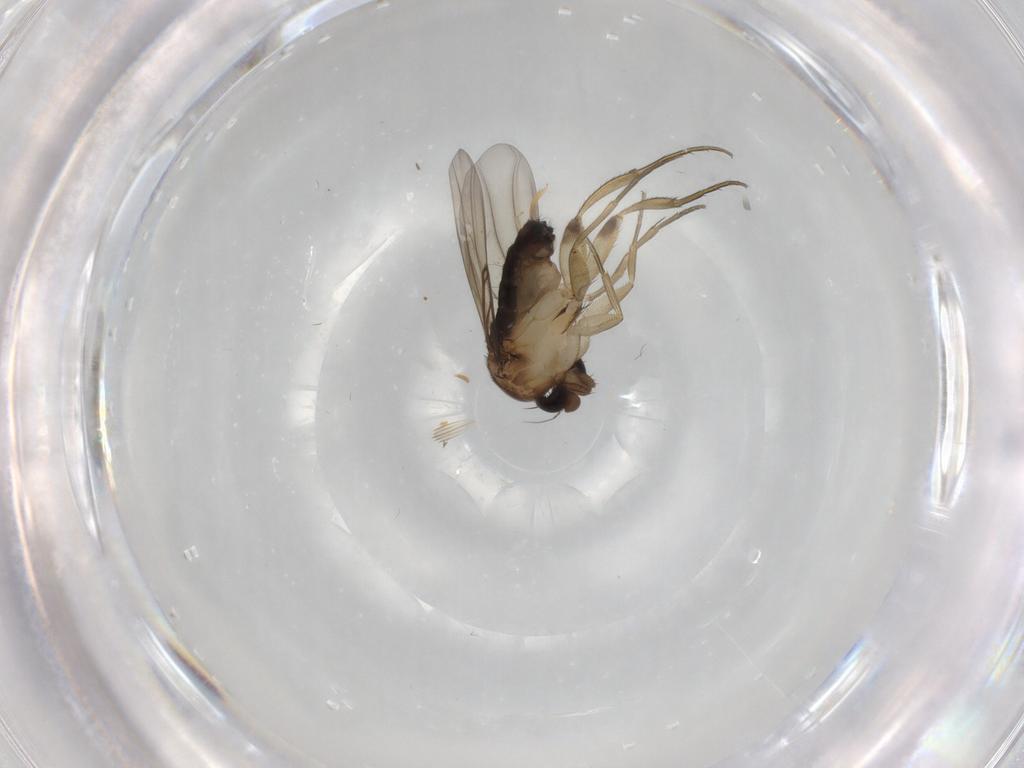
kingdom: Animalia
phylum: Arthropoda
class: Insecta
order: Diptera
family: Phoridae
